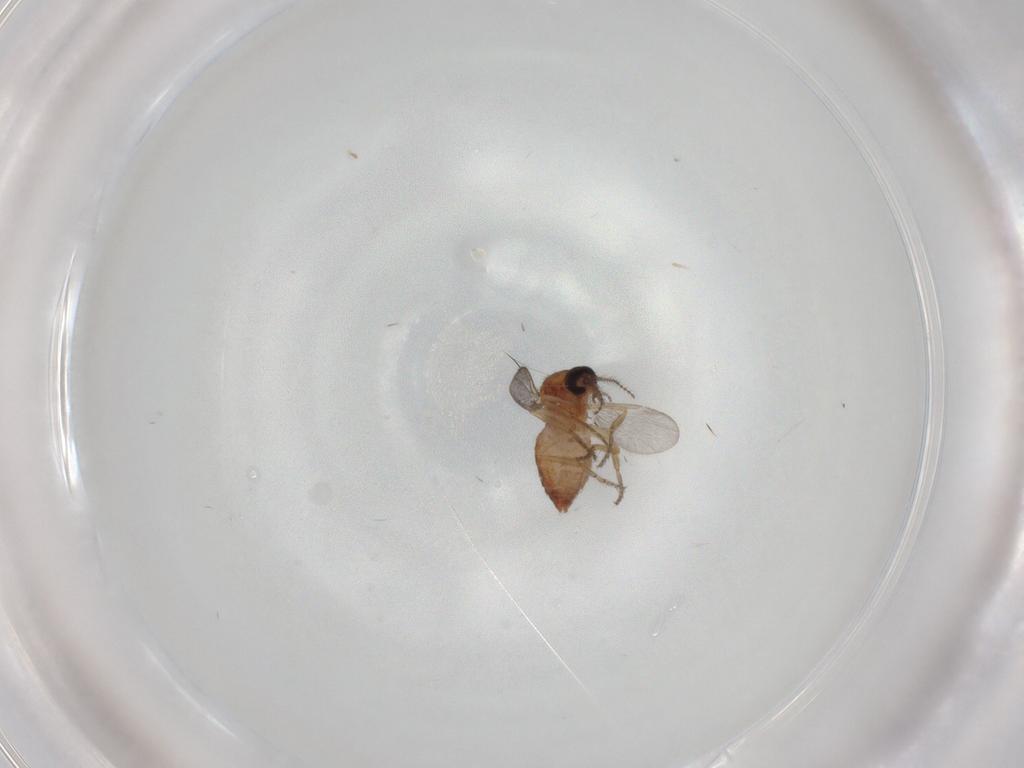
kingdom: Animalia
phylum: Arthropoda
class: Insecta
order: Diptera
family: Ceratopogonidae
